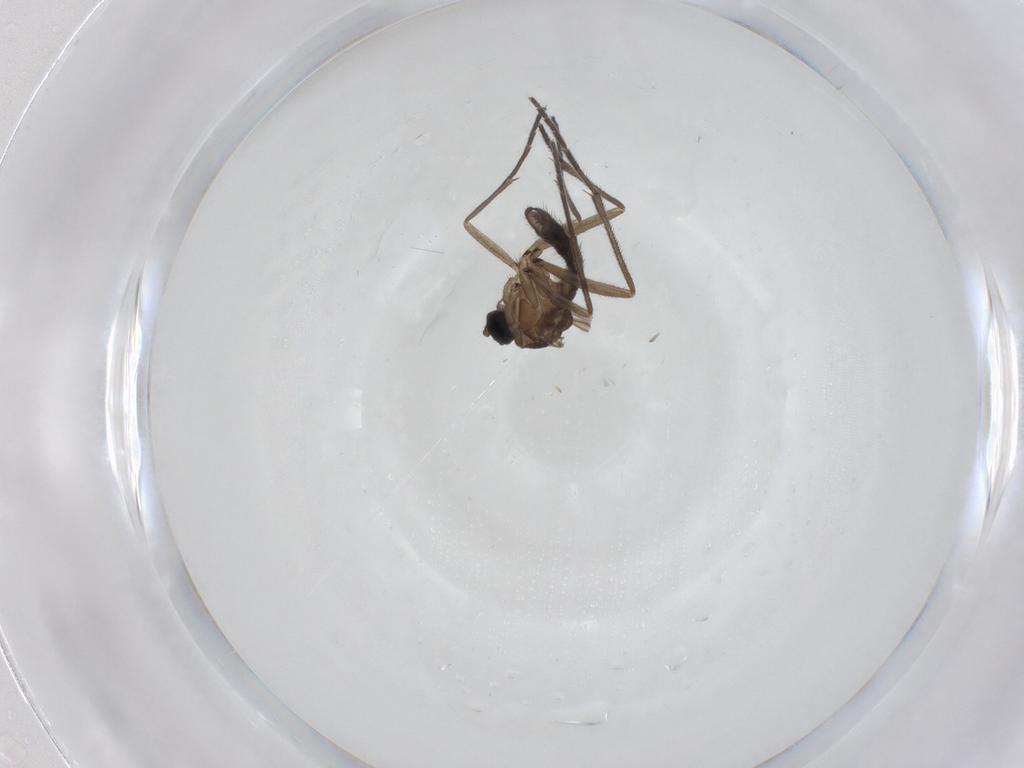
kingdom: Animalia
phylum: Arthropoda
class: Insecta
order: Diptera
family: Sciaridae
